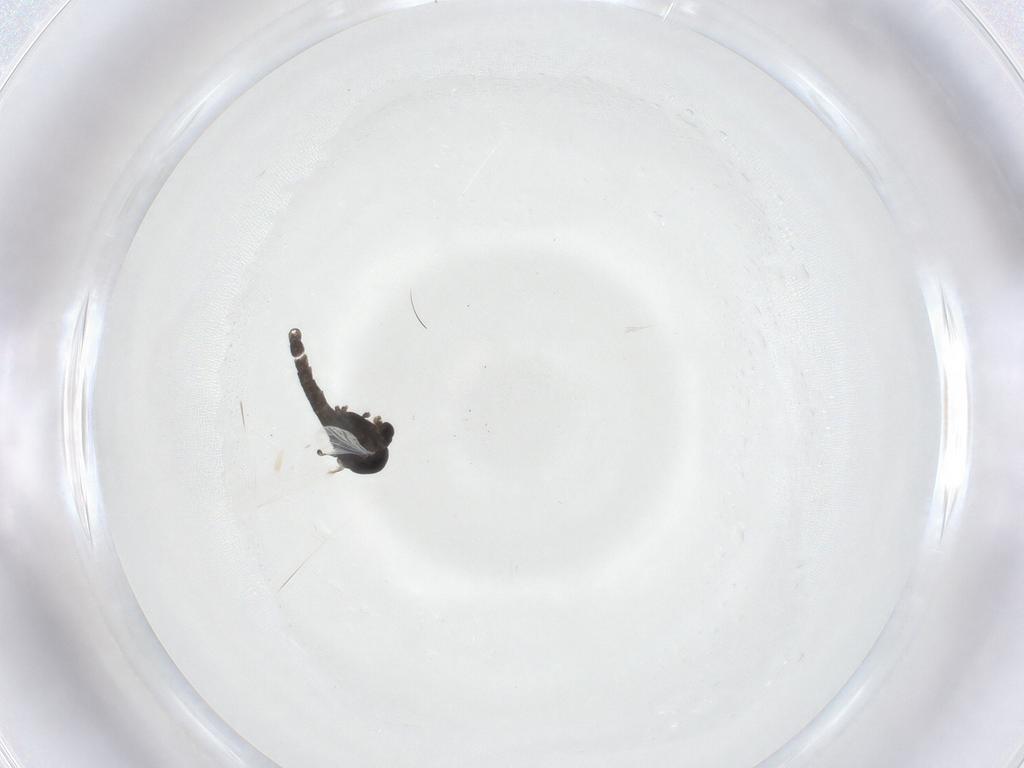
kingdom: Animalia
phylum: Arthropoda
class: Insecta
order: Diptera
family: Chironomidae
